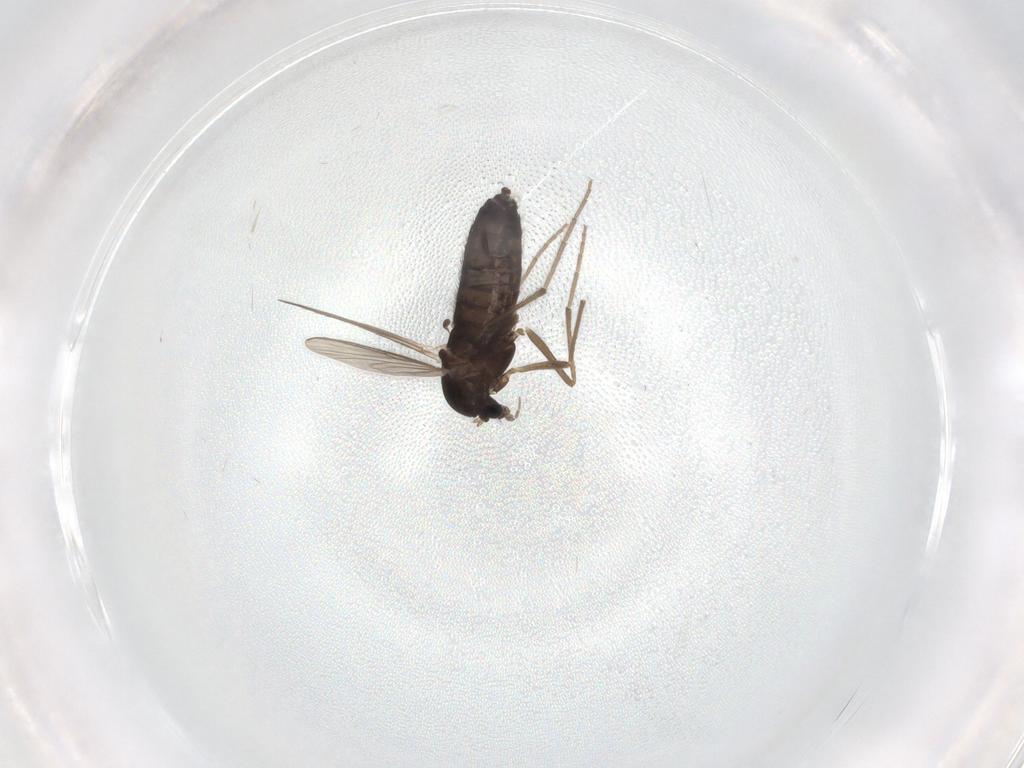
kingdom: Animalia
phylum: Arthropoda
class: Insecta
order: Diptera
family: Chironomidae
